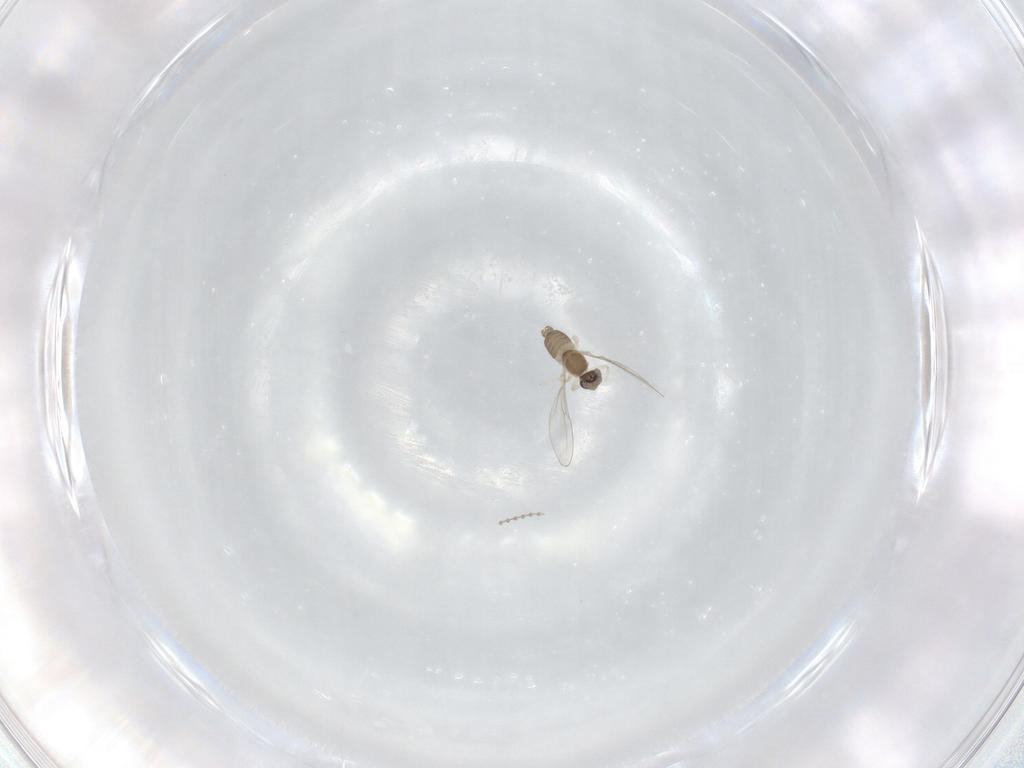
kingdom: Animalia
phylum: Arthropoda
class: Insecta
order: Diptera
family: Cecidomyiidae
